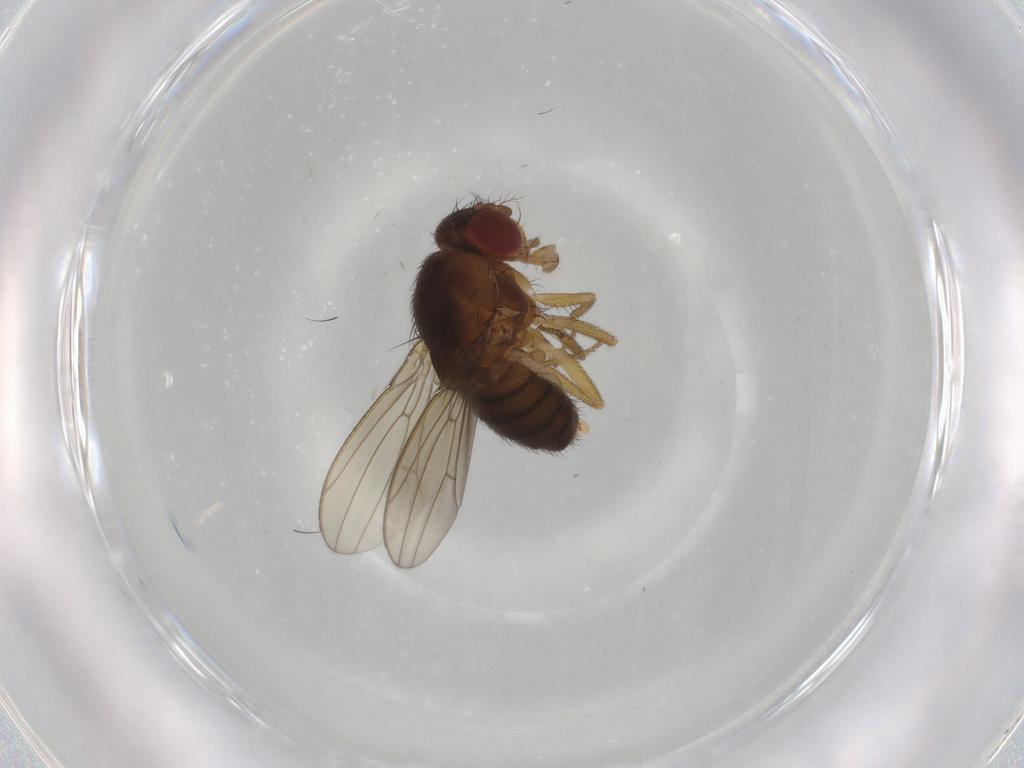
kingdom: Animalia
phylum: Arthropoda
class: Insecta
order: Diptera
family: Drosophilidae
